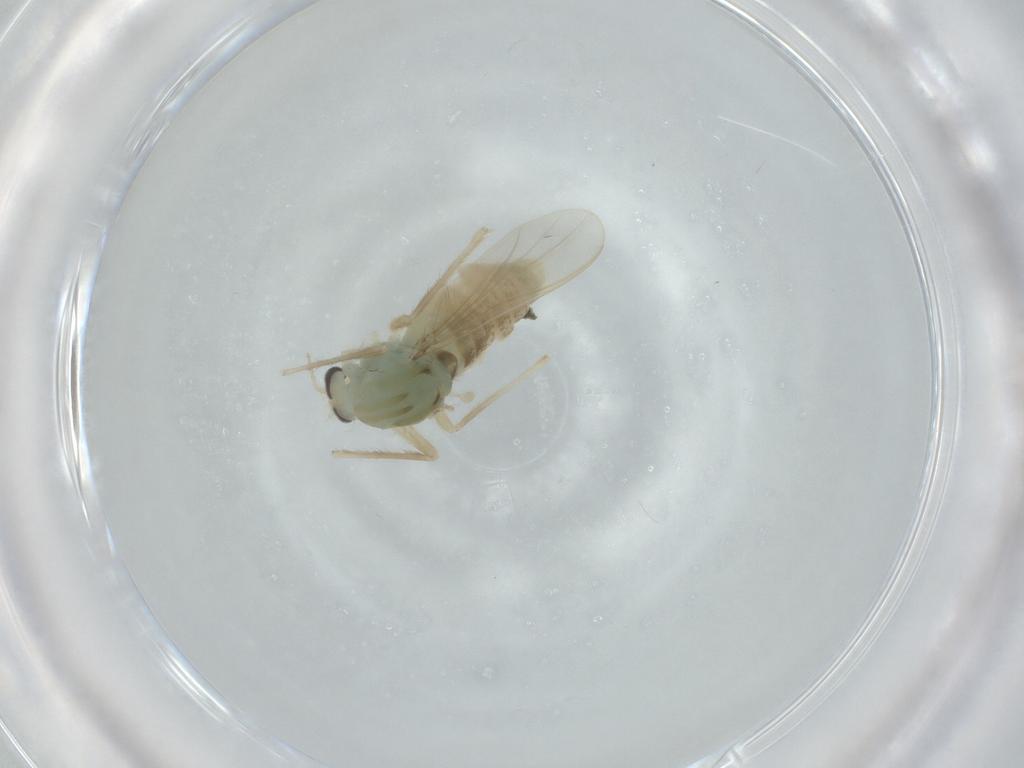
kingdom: Animalia
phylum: Arthropoda
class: Insecta
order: Diptera
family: Chironomidae
